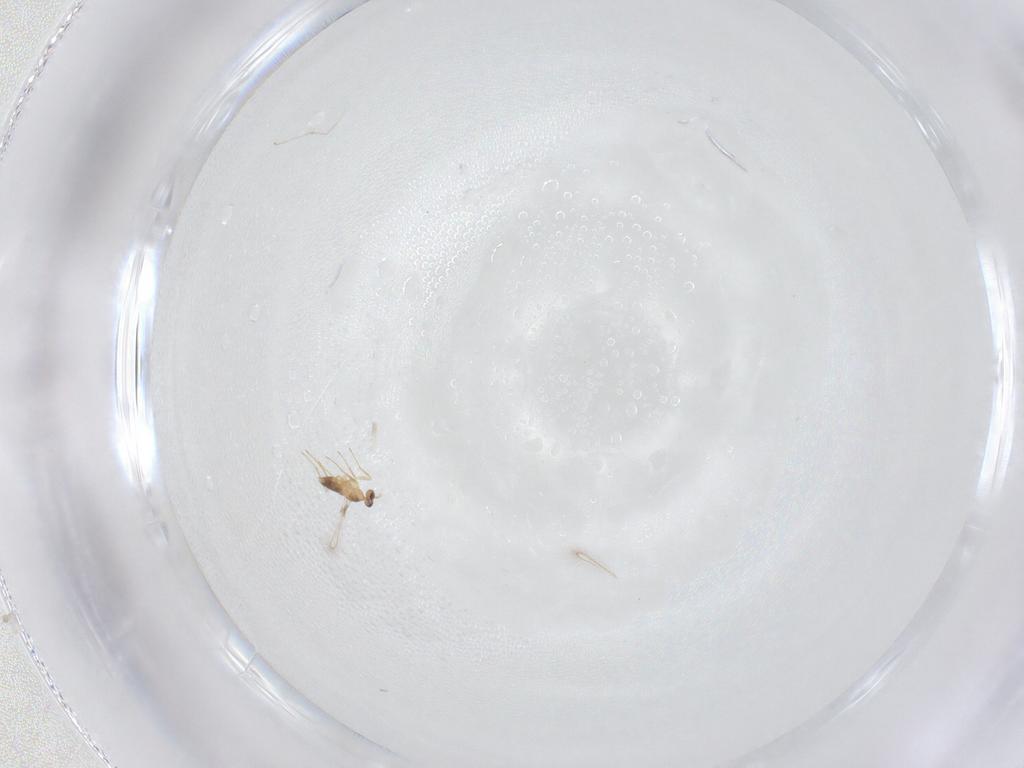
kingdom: Animalia
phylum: Arthropoda
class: Insecta
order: Hymenoptera
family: Mymaridae
